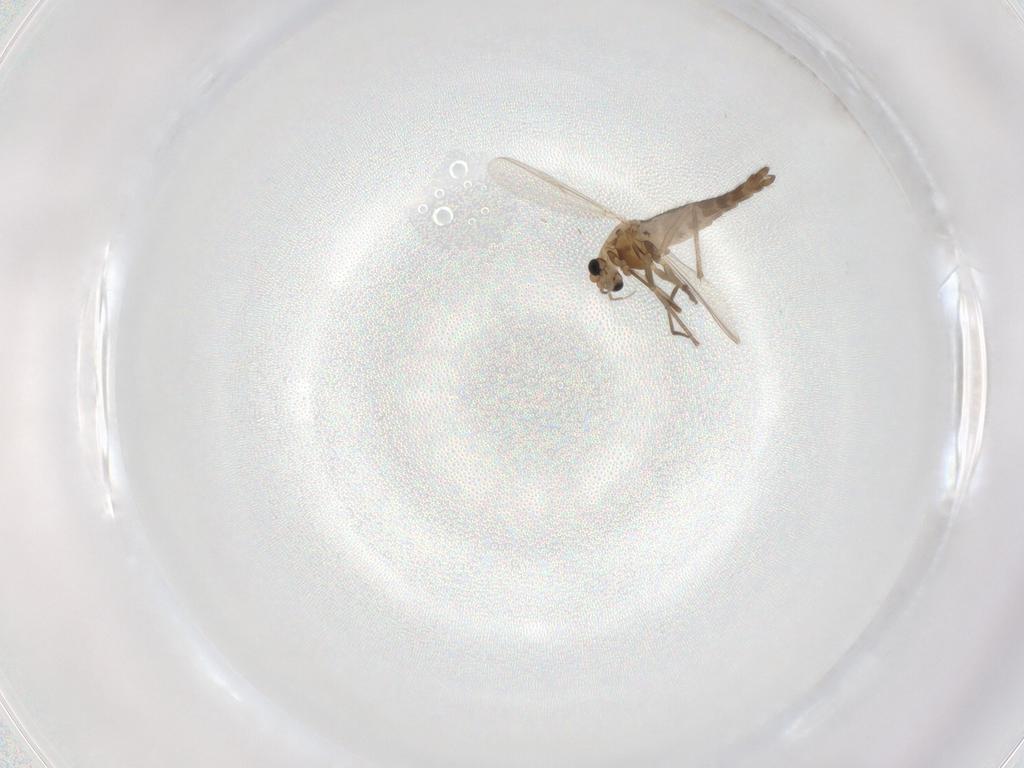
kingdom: Animalia
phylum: Arthropoda
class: Insecta
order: Diptera
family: Chironomidae
